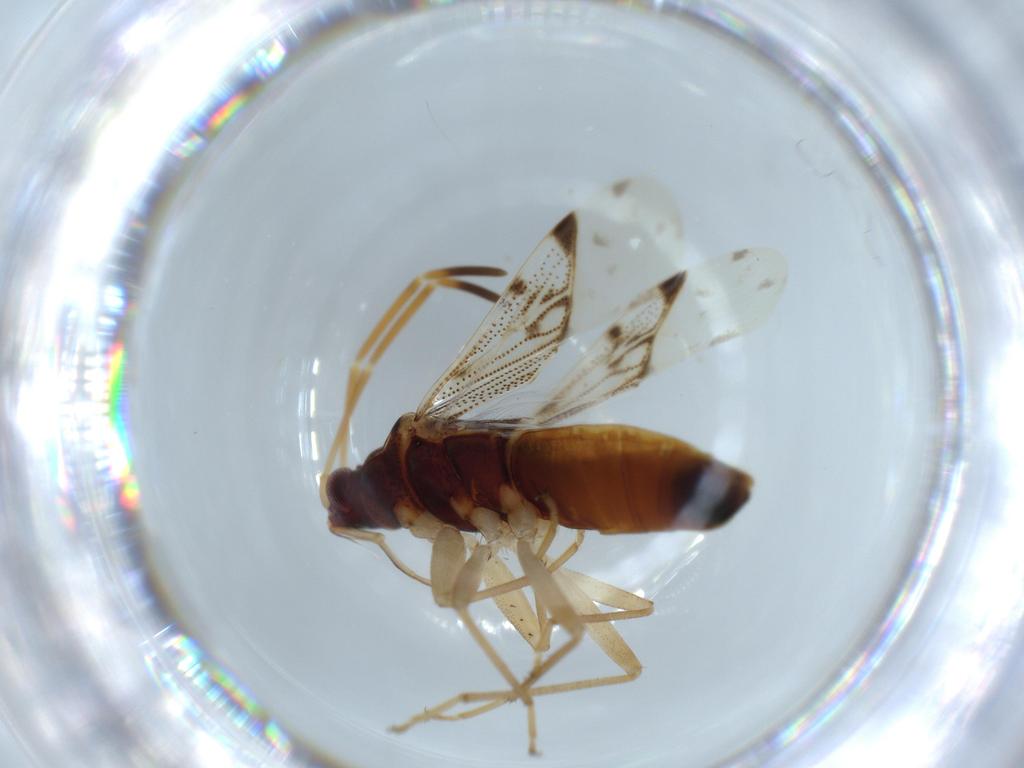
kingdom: Animalia
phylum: Arthropoda
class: Insecta
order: Hemiptera
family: Rhyparochromidae
